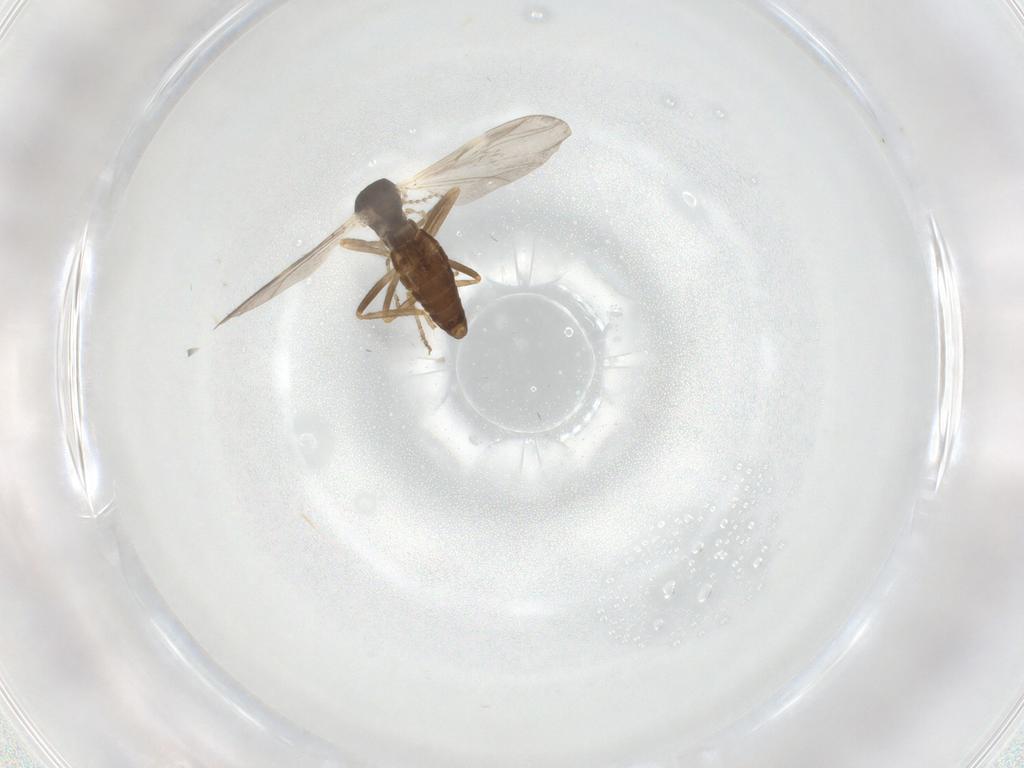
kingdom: Animalia
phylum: Arthropoda
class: Insecta
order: Diptera
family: Ceratopogonidae
